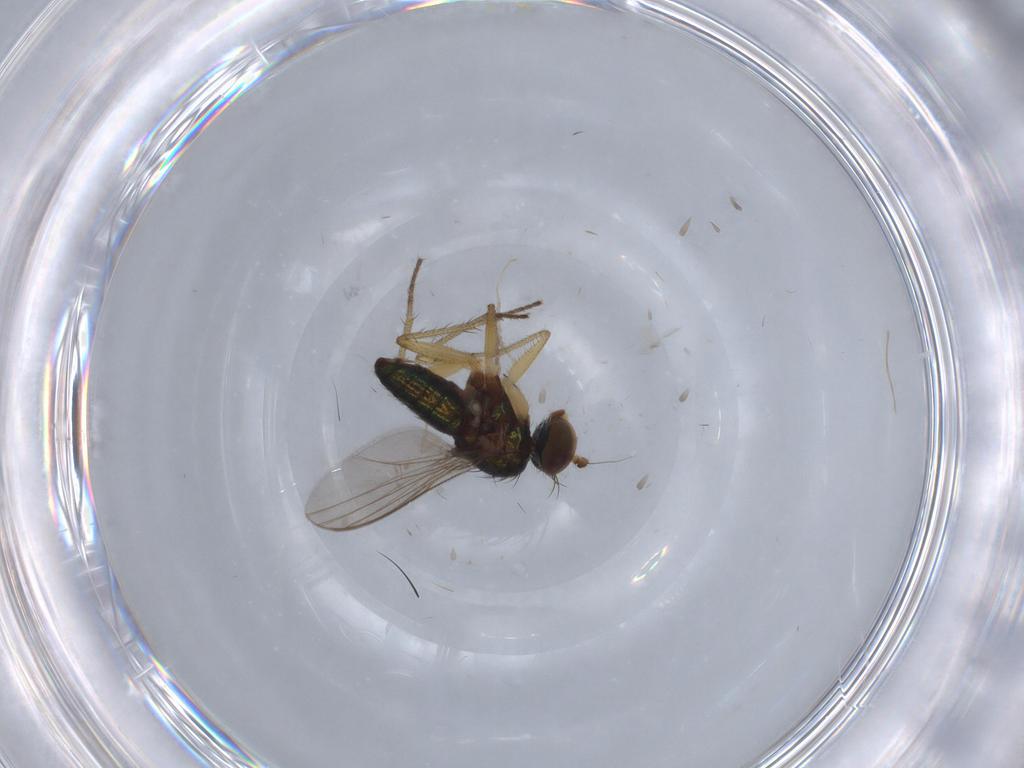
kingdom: Animalia
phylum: Arthropoda
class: Insecta
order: Diptera
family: Cecidomyiidae
